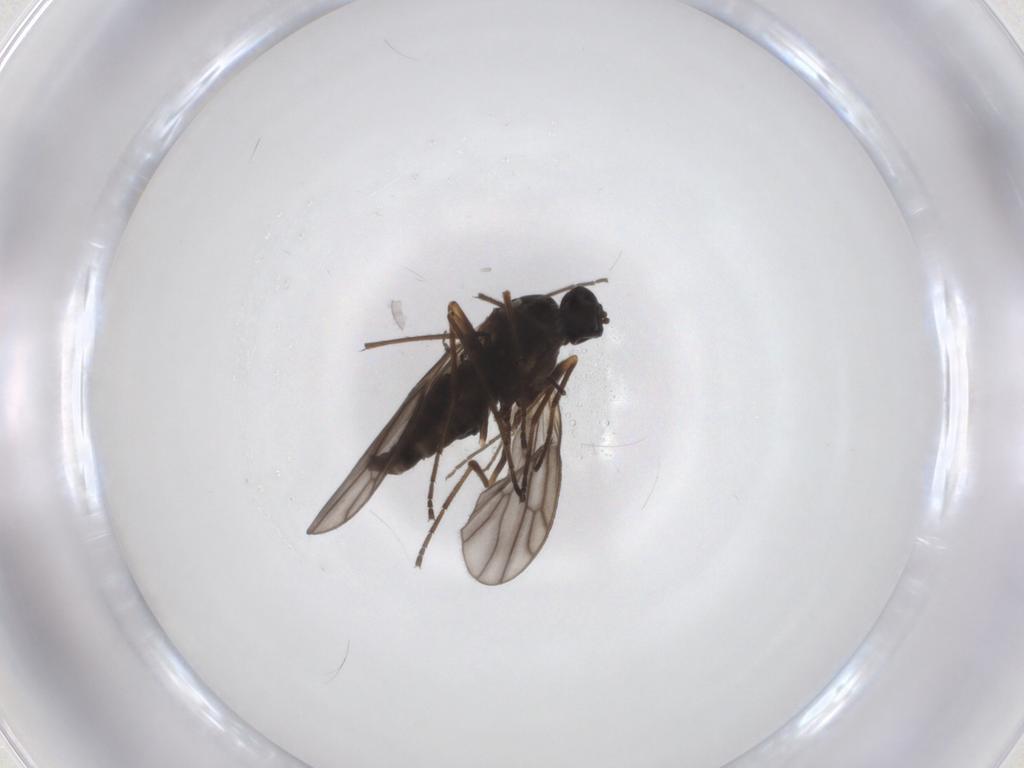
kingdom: Animalia
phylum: Arthropoda
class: Insecta
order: Diptera
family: Chironomidae
